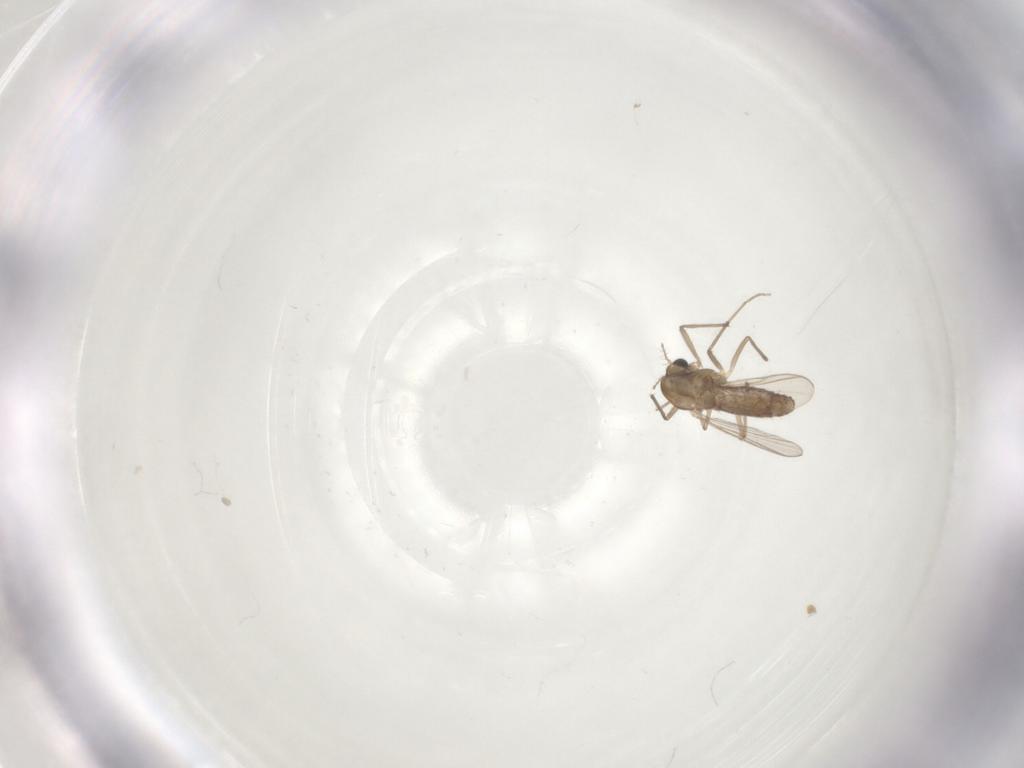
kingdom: Animalia
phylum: Arthropoda
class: Insecta
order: Diptera
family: Chironomidae
